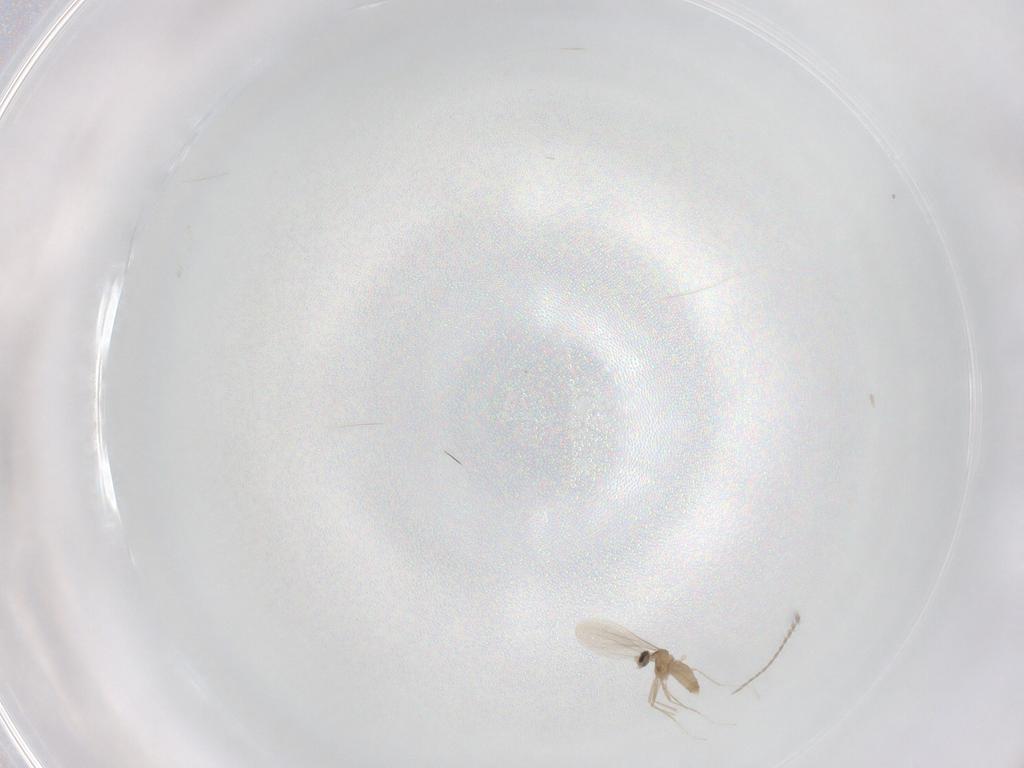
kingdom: Animalia
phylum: Arthropoda
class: Insecta
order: Diptera
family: Cecidomyiidae
